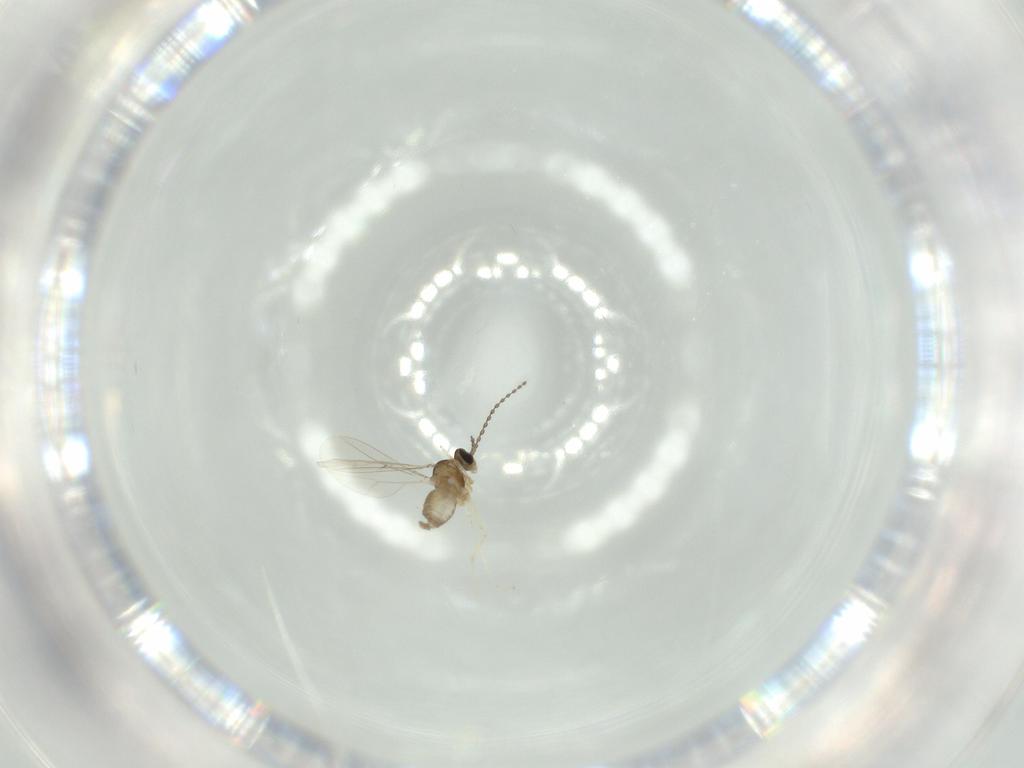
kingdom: Animalia
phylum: Arthropoda
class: Insecta
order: Diptera
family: Cecidomyiidae
